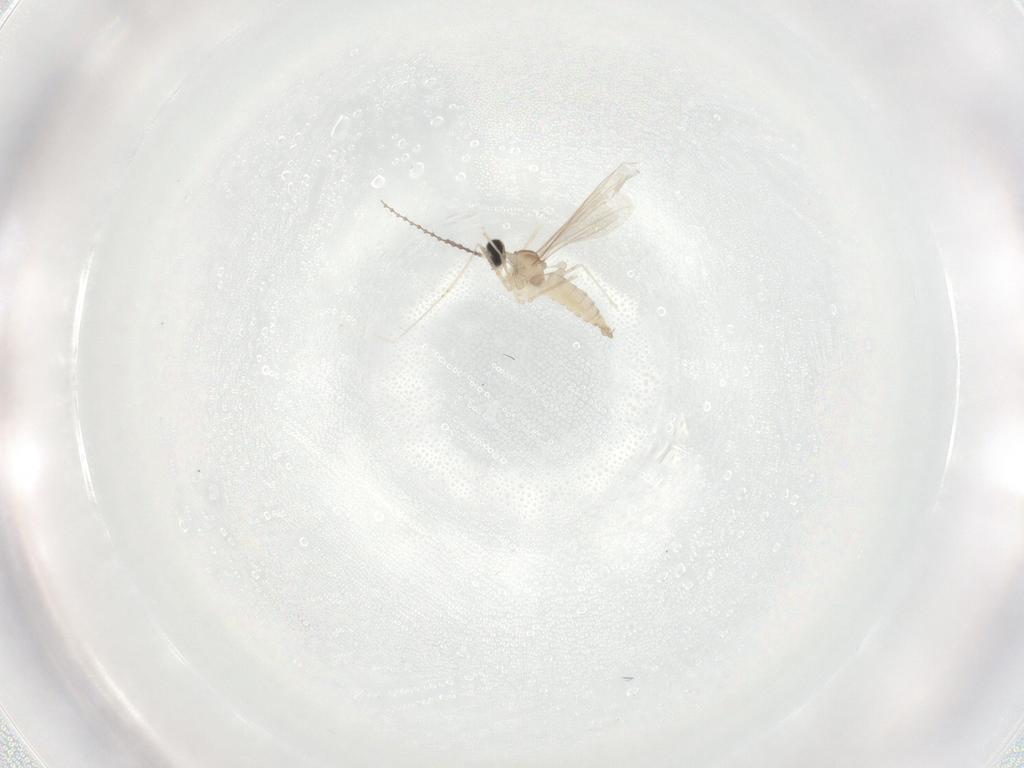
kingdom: Animalia
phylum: Arthropoda
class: Insecta
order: Diptera
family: Cecidomyiidae
